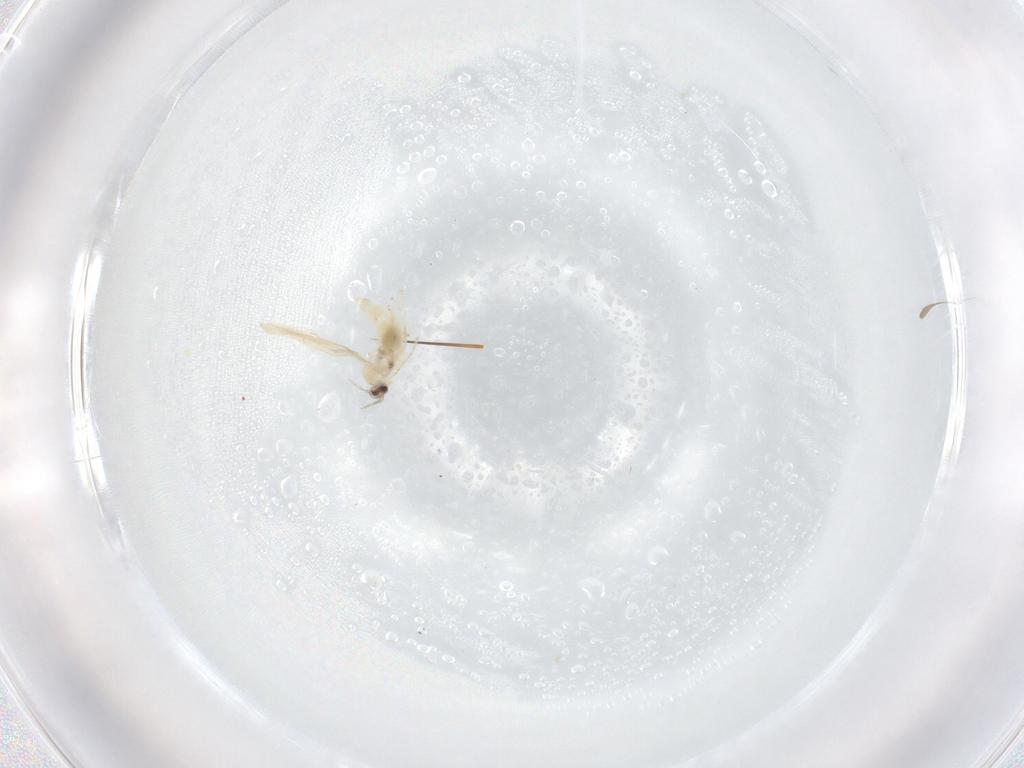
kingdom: Animalia
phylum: Arthropoda
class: Insecta
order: Diptera
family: Cecidomyiidae
